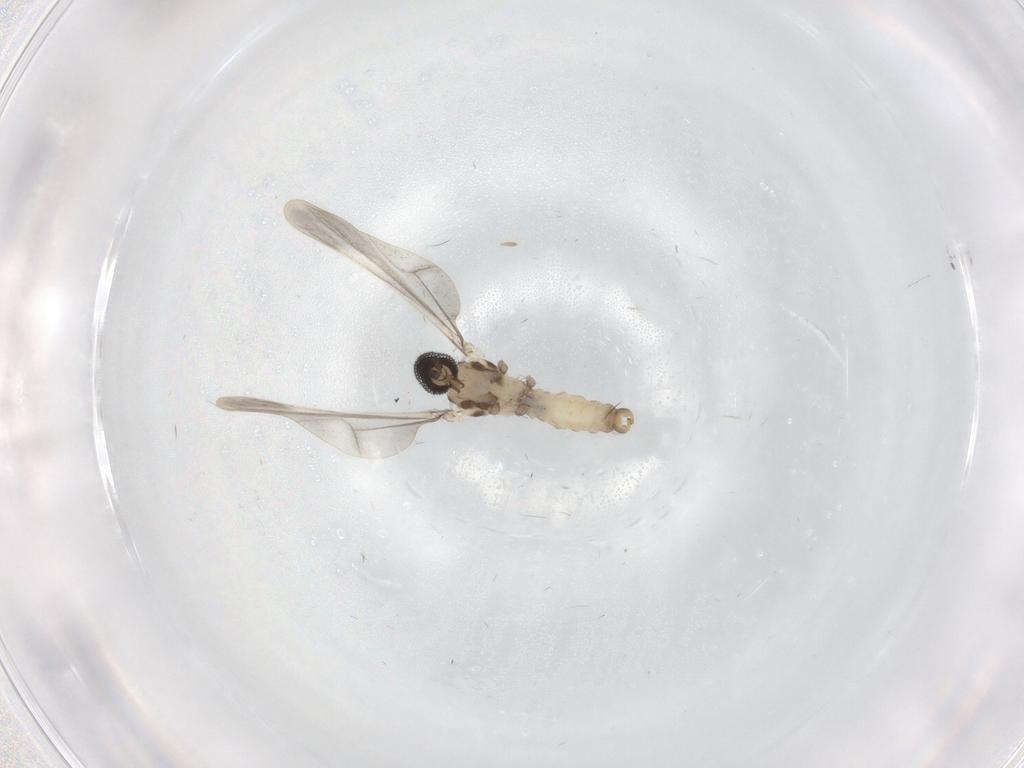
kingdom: Animalia
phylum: Arthropoda
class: Insecta
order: Diptera
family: Cecidomyiidae
